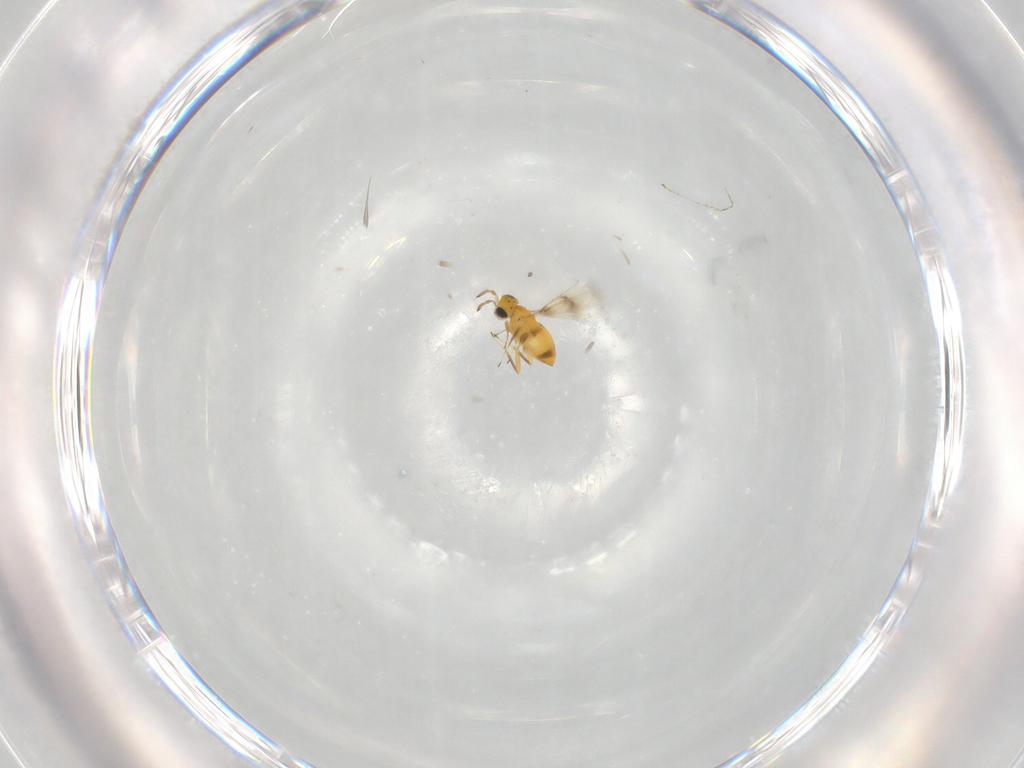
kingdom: Animalia
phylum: Arthropoda
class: Insecta
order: Hymenoptera
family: Aphelinidae
